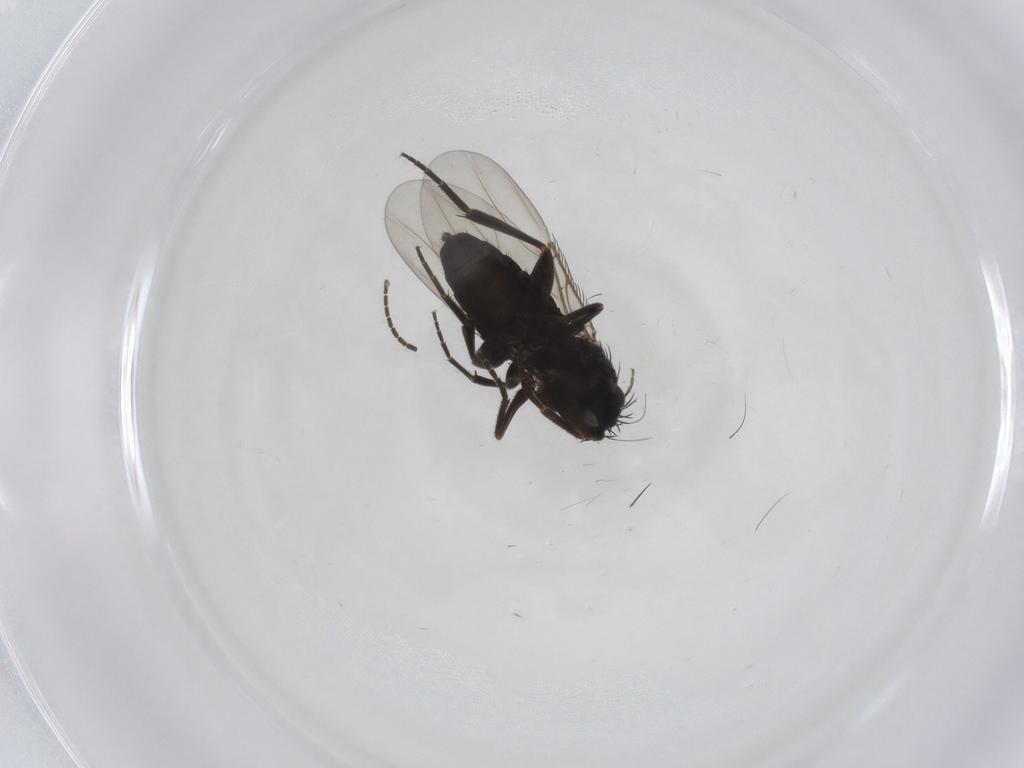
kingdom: Animalia
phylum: Arthropoda
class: Insecta
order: Diptera
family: Phoridae
